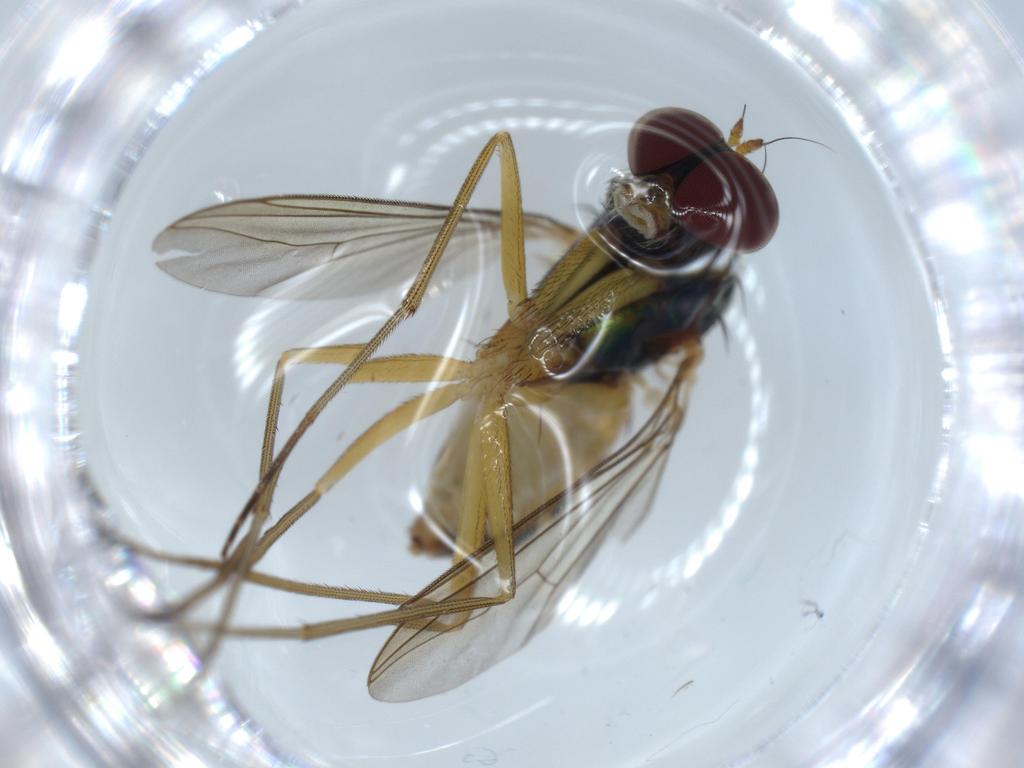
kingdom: Animalia
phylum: Arthropoda
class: Insecta
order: Diptera
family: Dolichopodidae
